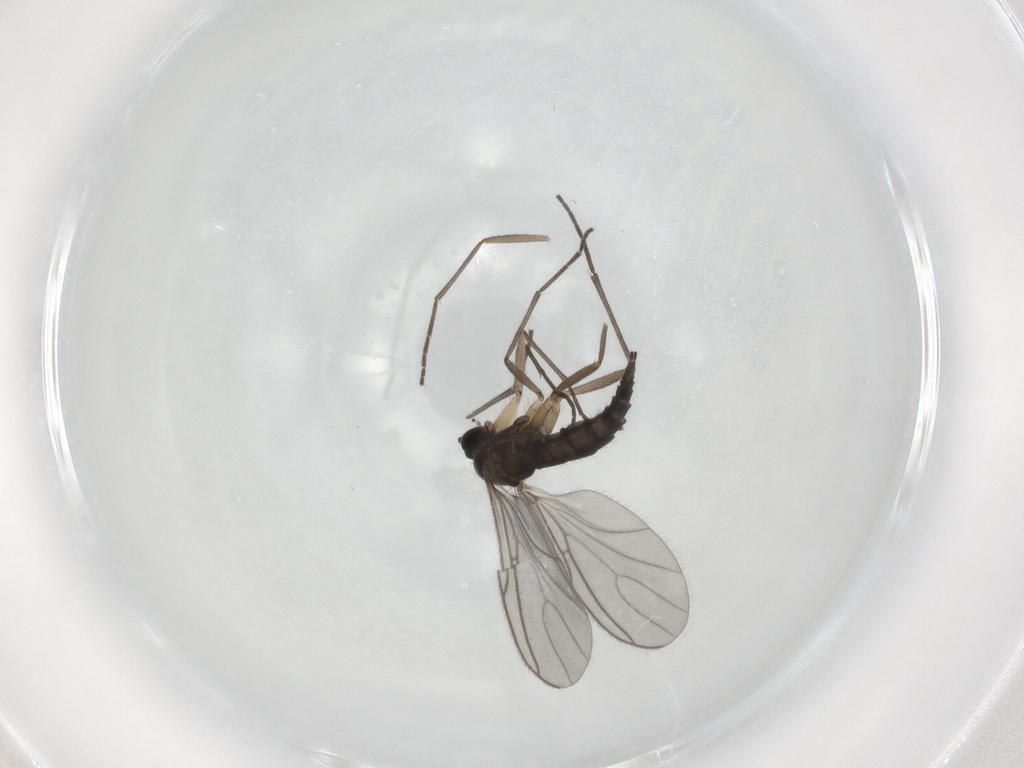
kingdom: Animalia
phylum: Arthropoda
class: Insecta
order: Diptera
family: Sciaridae
